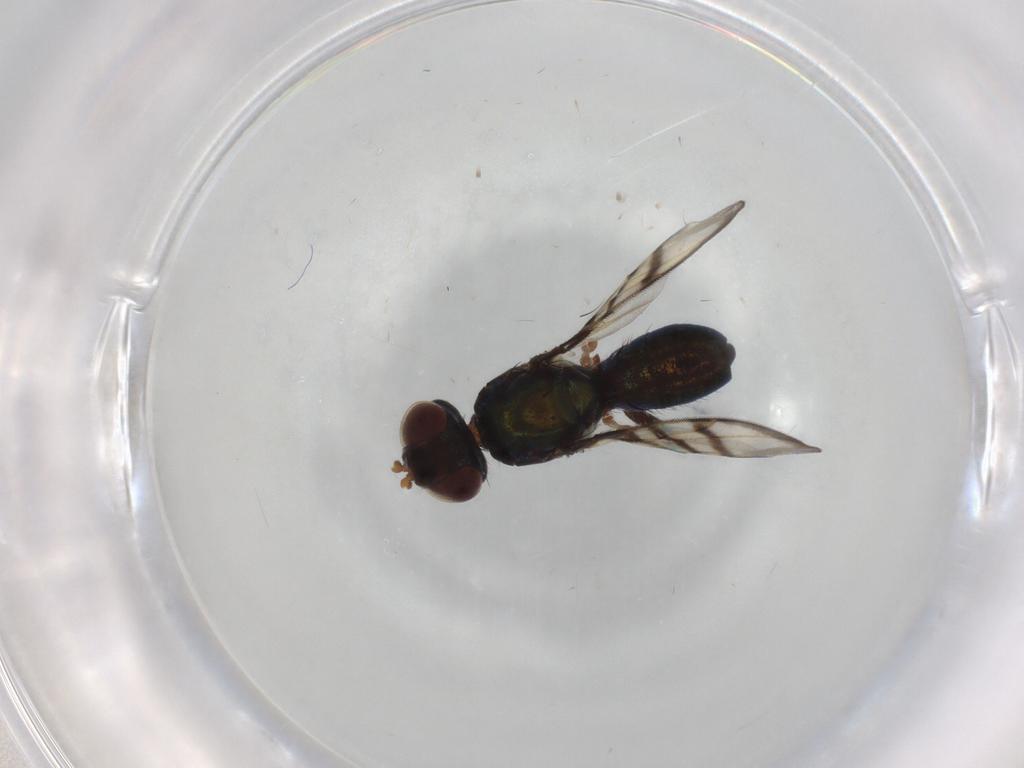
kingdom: Animalia
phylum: Arthropoda
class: Insecta
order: Diptera
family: Platystomatidae
